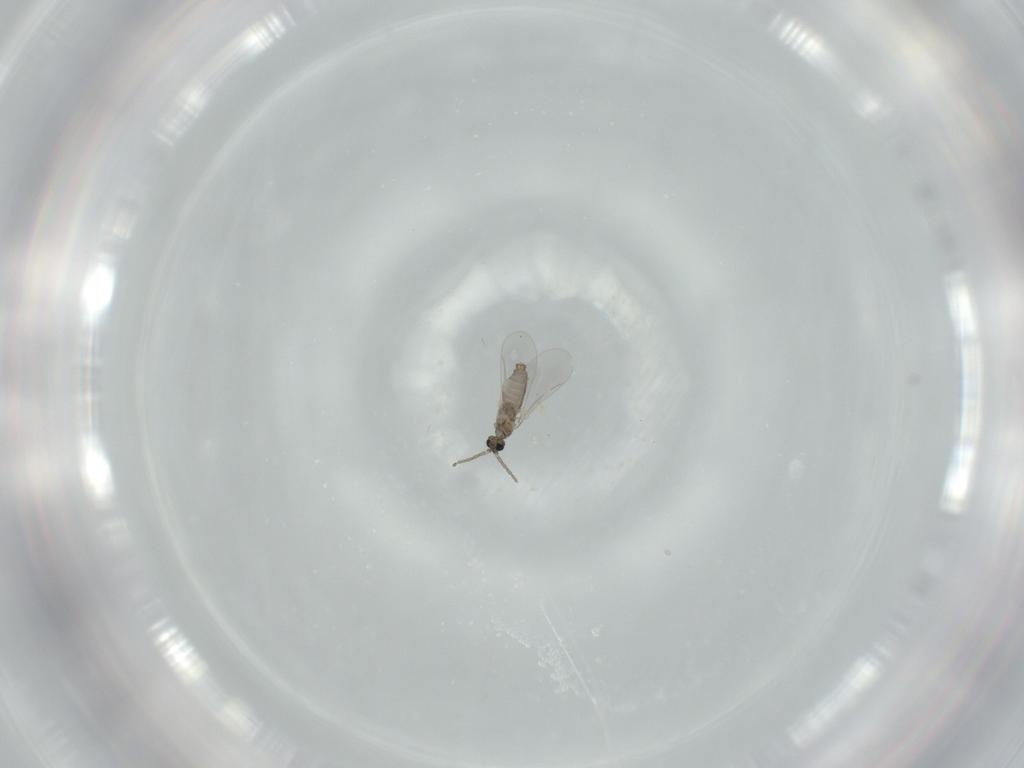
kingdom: Animalia
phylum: Arthropoda
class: Insecta
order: Diptera
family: Cecidomyiidae
